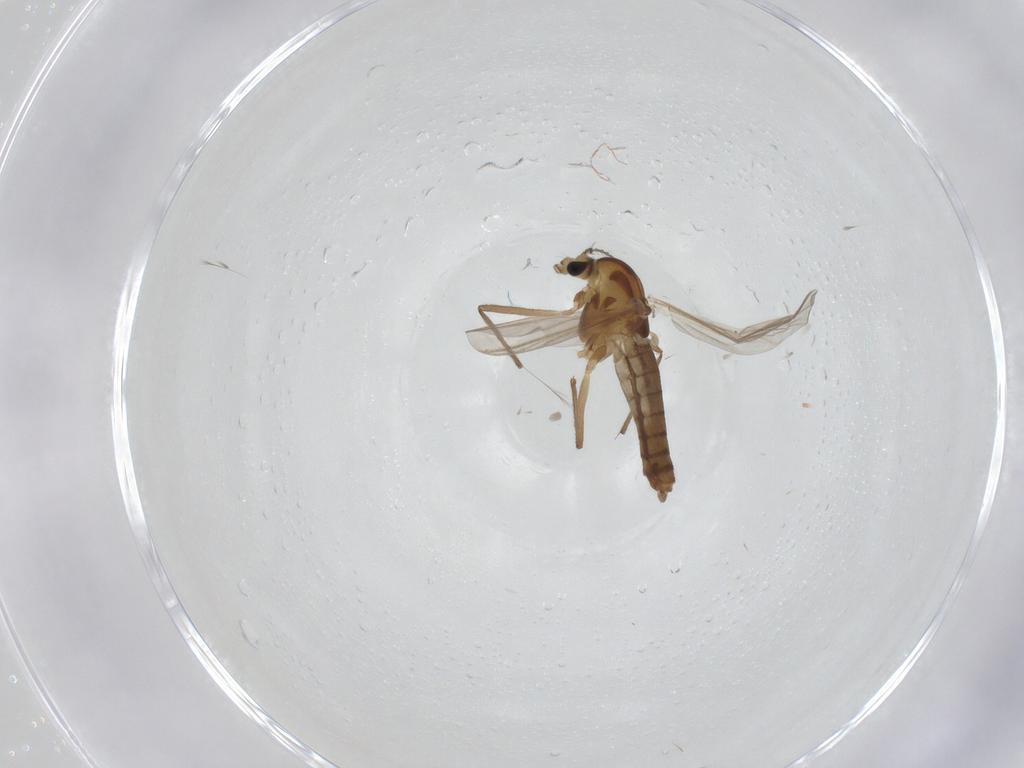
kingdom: Animalia
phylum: Arthropoda
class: Insecta
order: Diptera
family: Chironomidae
